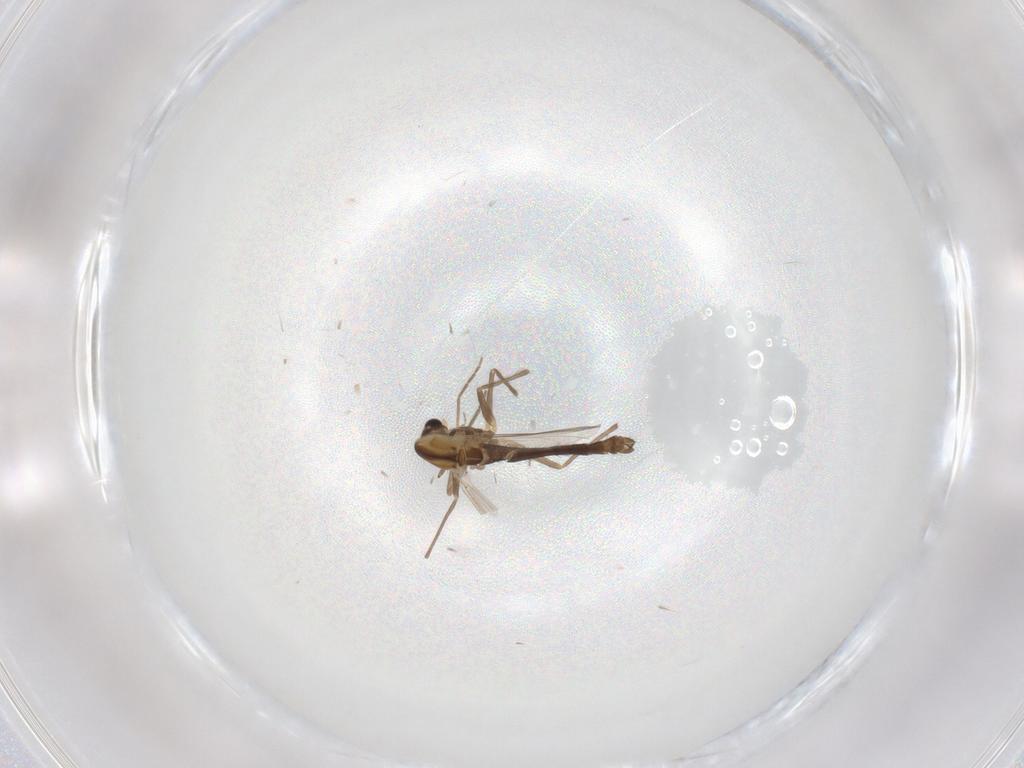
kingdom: Animalia
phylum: Arthropoda
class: Insecta
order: Diptera
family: Chironomidae
